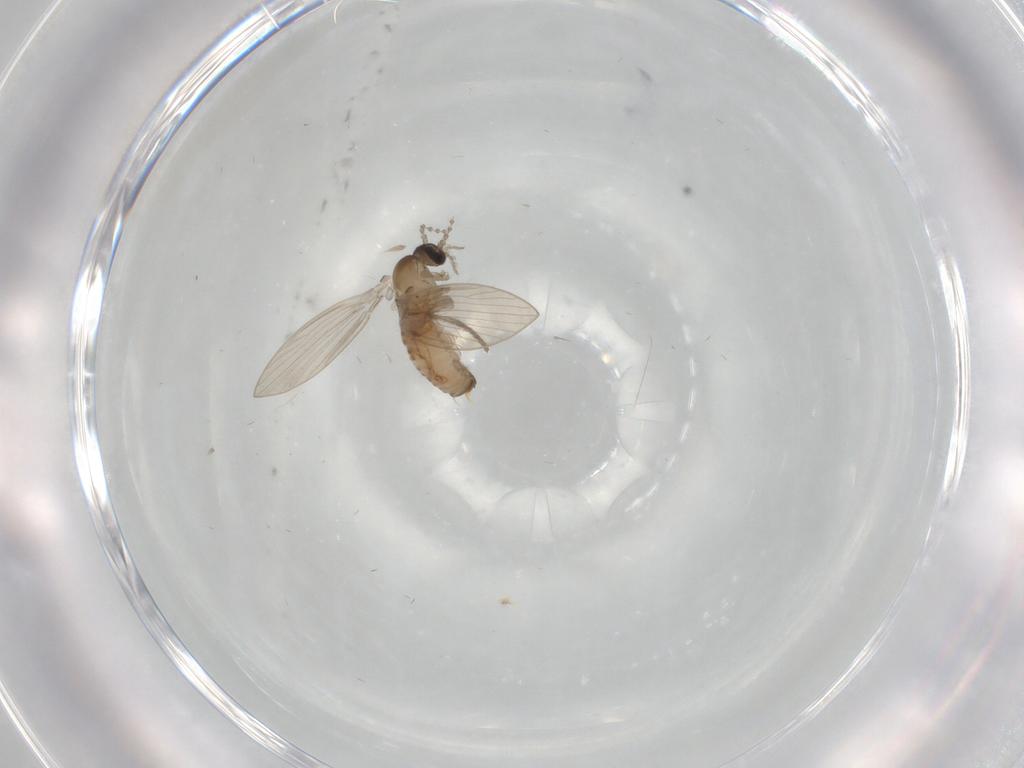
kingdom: Animalia
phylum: Arthropoda
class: Insecta
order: Diptera
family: Psychodidae
